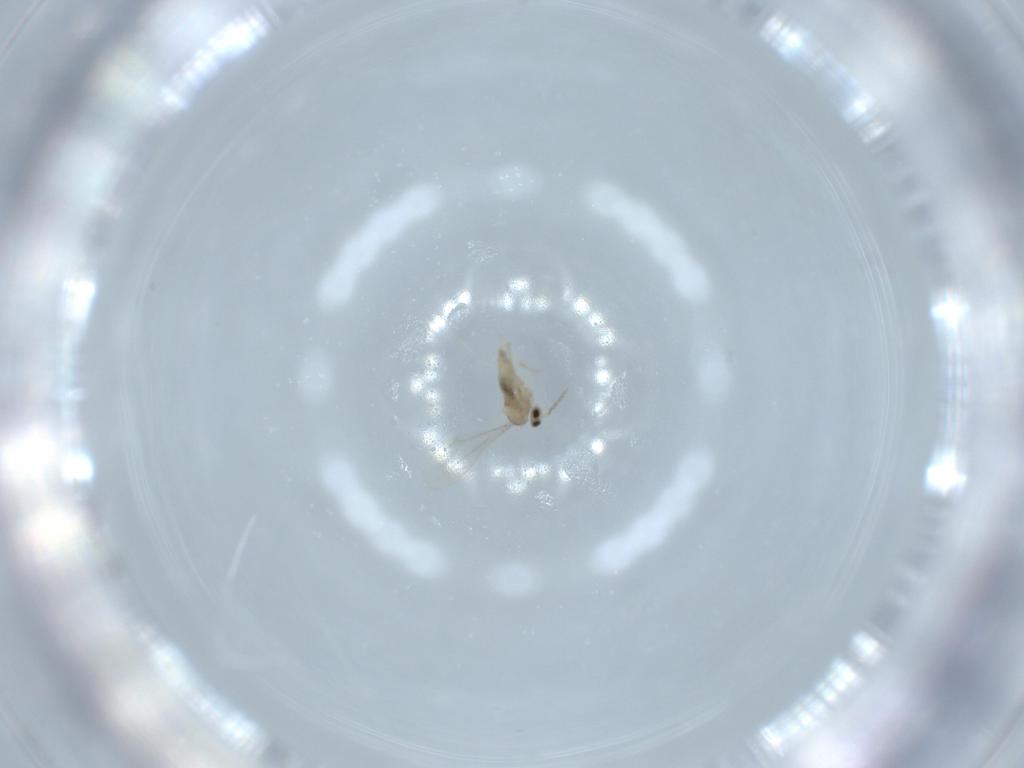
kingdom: Animalia
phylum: Arthropoda
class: Insecta
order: Diptera
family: Cecidomyiidae
